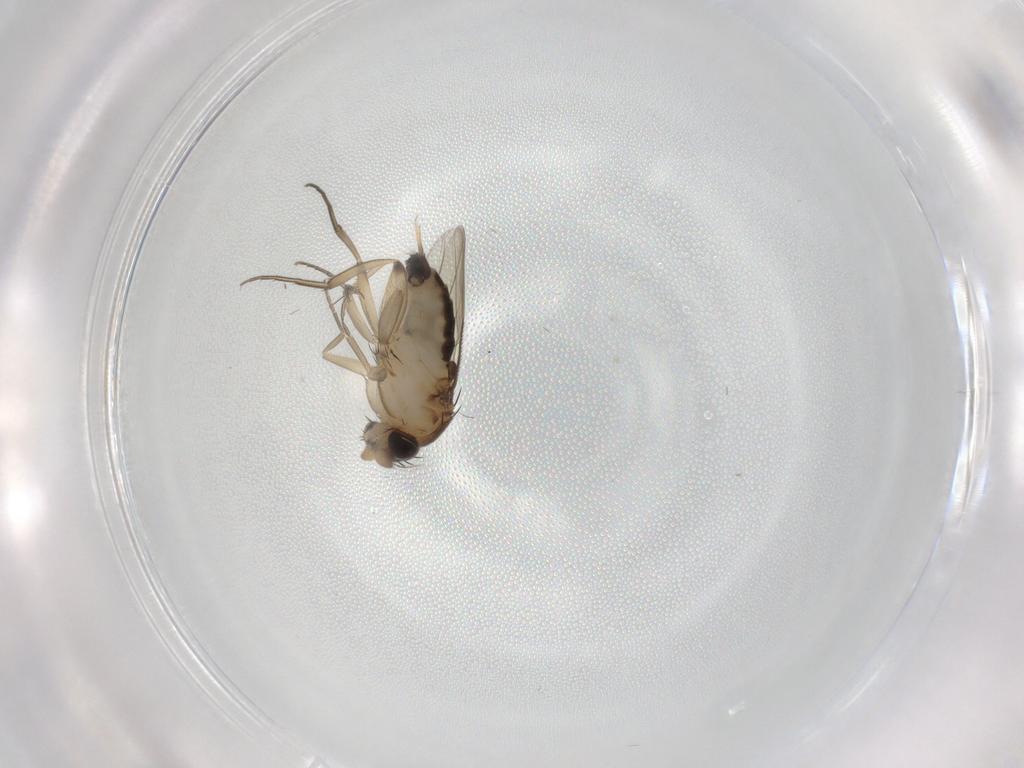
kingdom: Animalia
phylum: Arthropoda
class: Insecta
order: Diptera
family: Phoridae
